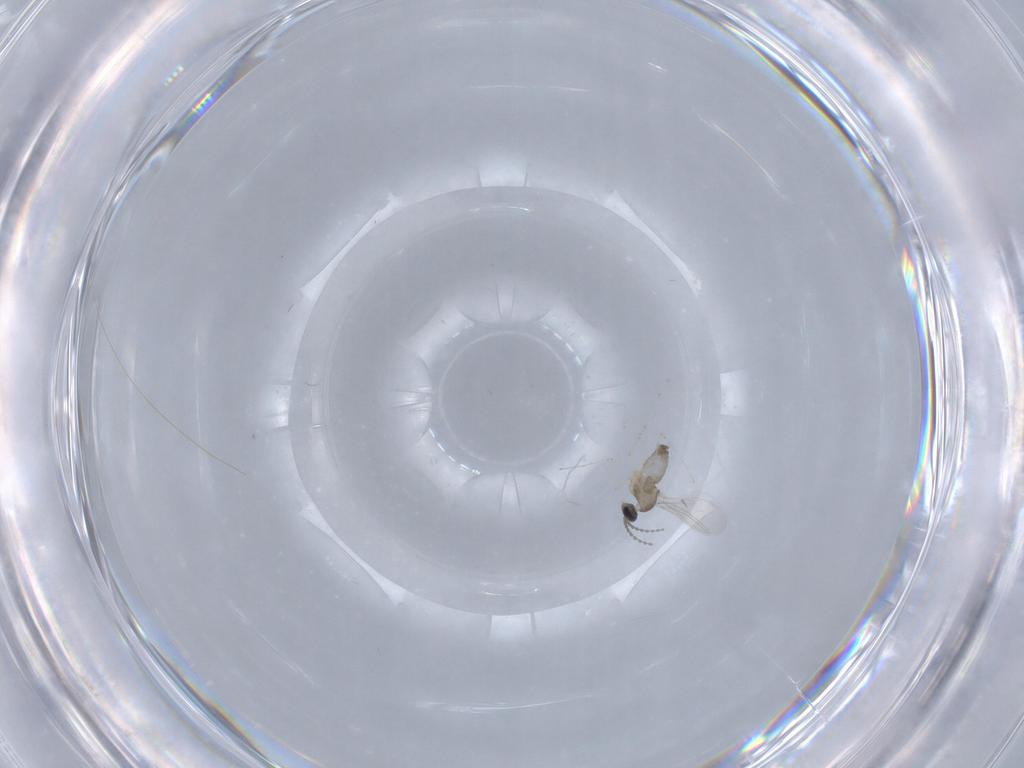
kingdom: Animalia
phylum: Arthropoda
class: Insecta
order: Diptera
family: Cecidomyiidae
